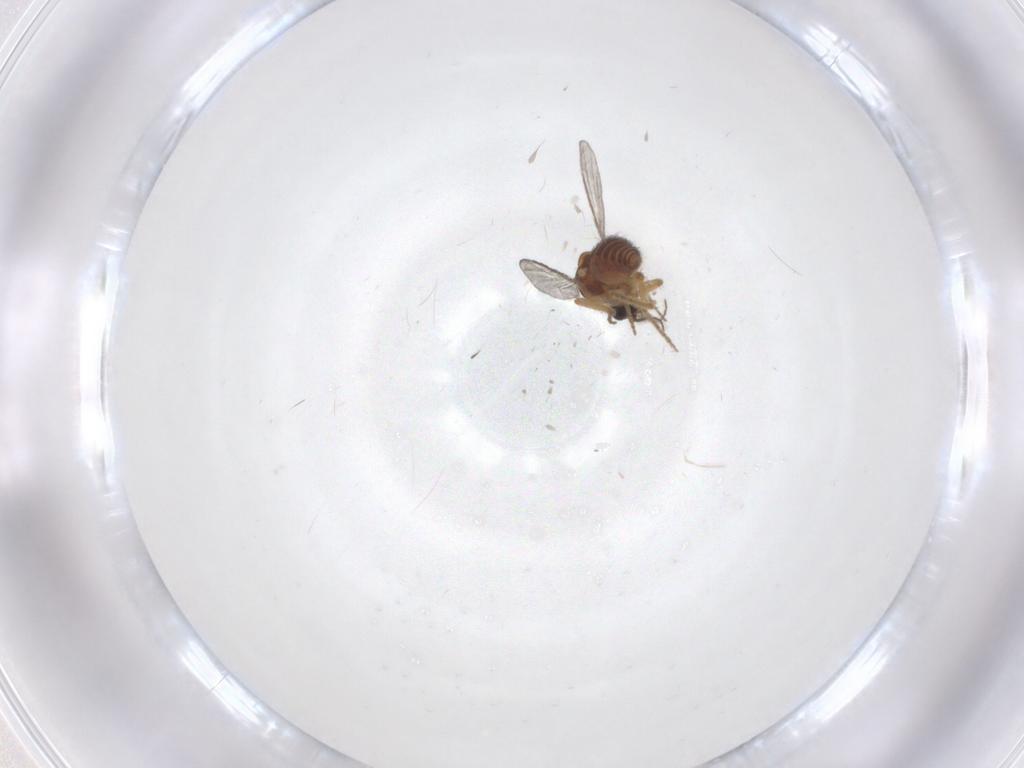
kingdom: Animalia
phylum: Arthropoda
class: Insecta
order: Diptera
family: Ceratopogonidae
